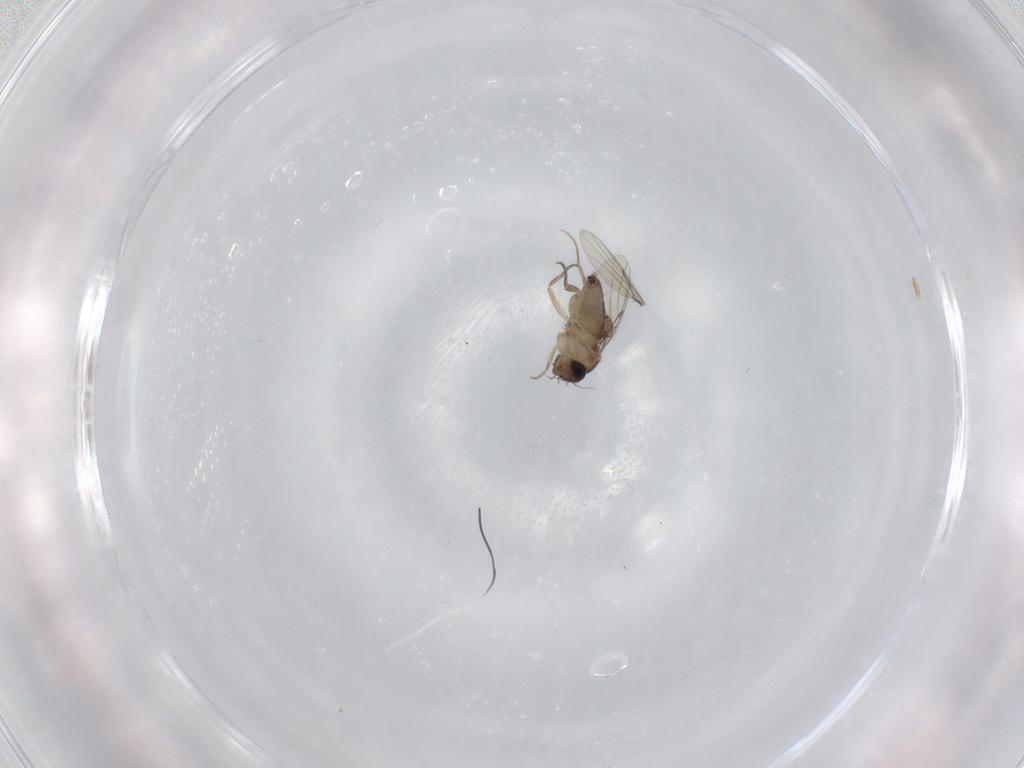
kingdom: Animalia
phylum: Arthropoda
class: Insecta
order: Diptera
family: Phoridae
